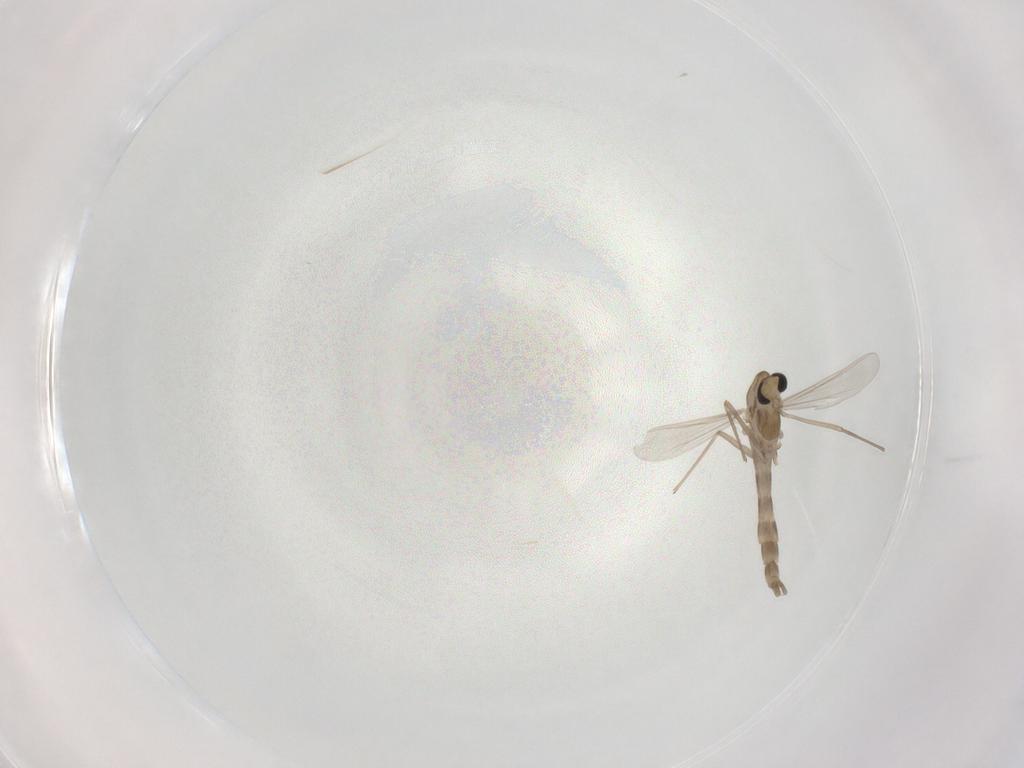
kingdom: Animalia
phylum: Arthropoda
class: Insecta
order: Diptera
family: Chironomidae
